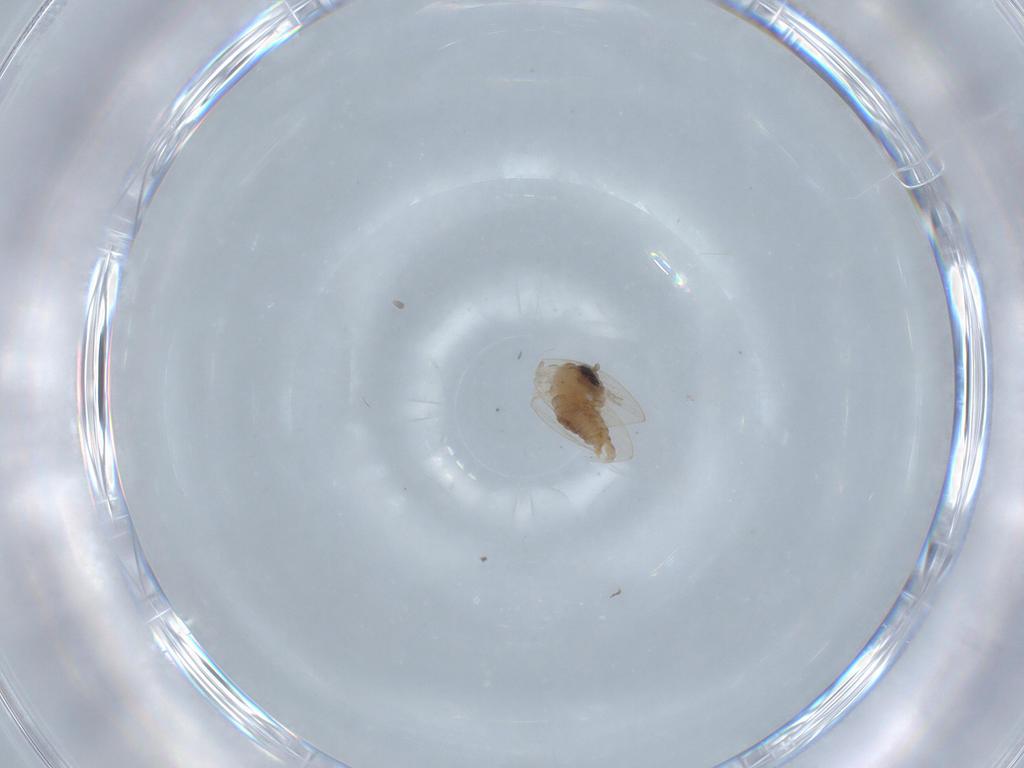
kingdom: Animalia
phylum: Arthropoda
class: Insecta
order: Diptera
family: Psychodidae
